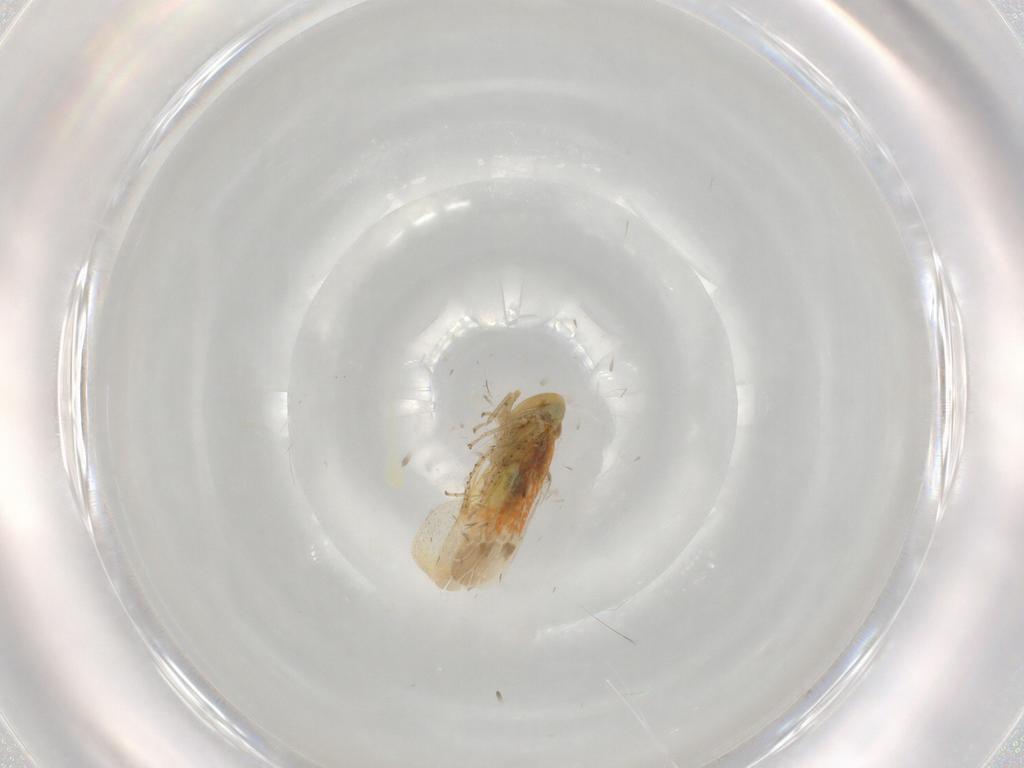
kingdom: Animalia
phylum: Arthropoda
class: Insecta
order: Hemiptera
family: Cicadellidae
